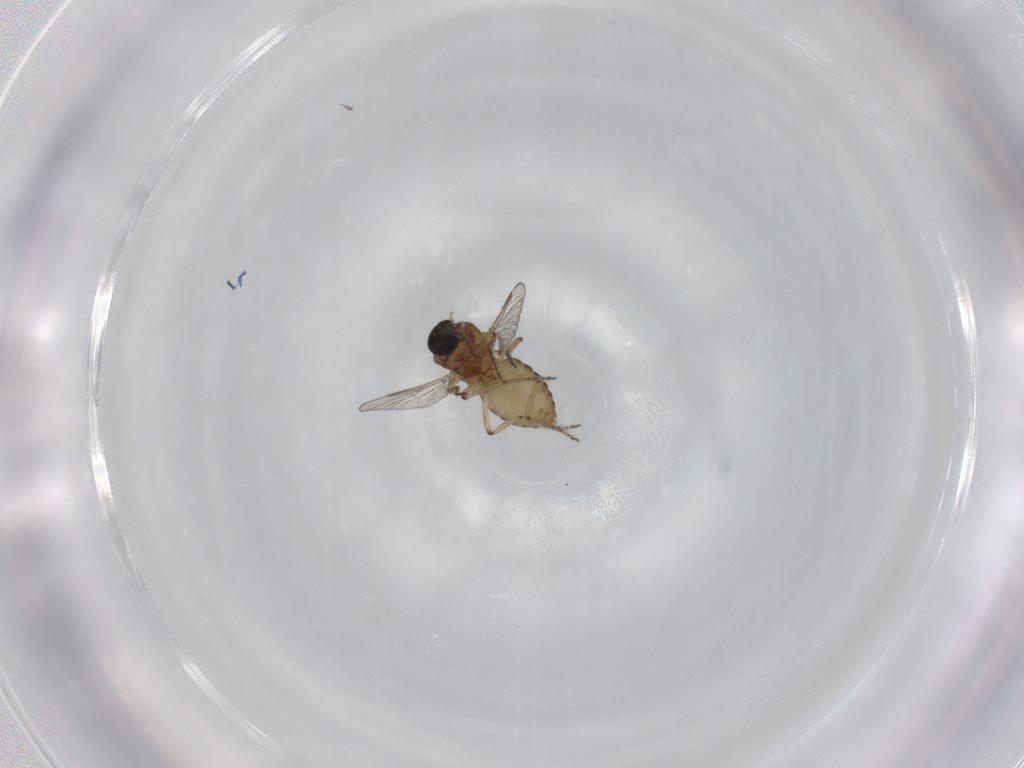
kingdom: Animalia
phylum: Arthropoda
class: Insecta
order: Diptera
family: Ceratopogonidae
